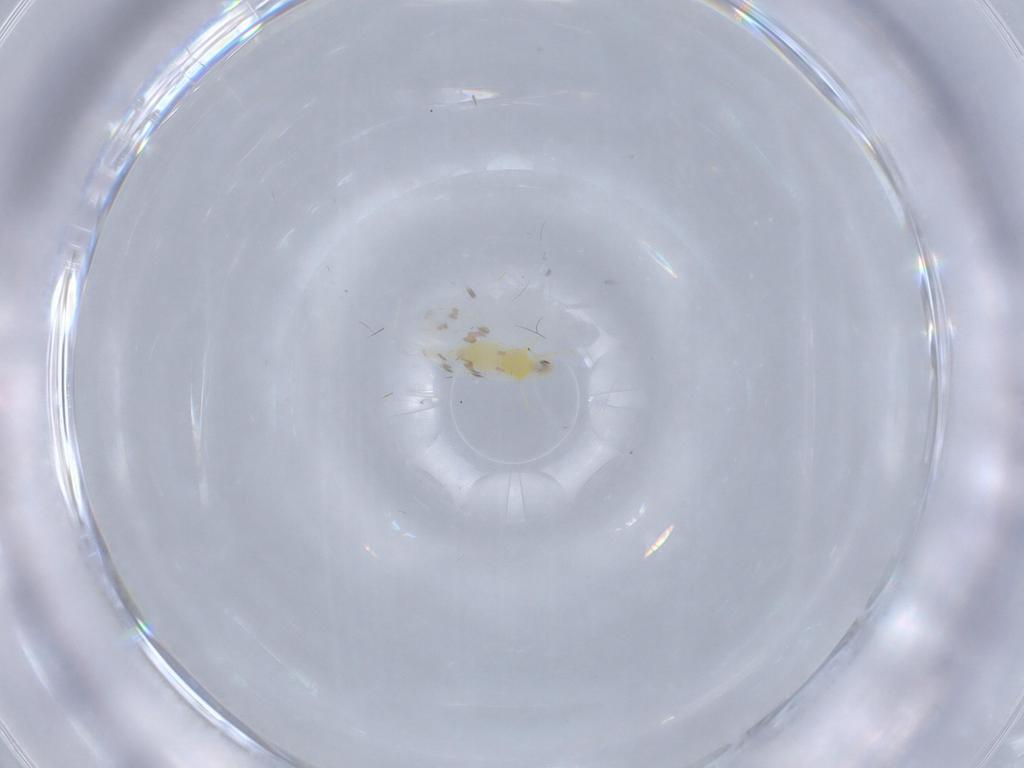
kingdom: Animalia
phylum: Arthropoda
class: Insecta
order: Hemiptera
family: Aleyrodidae
